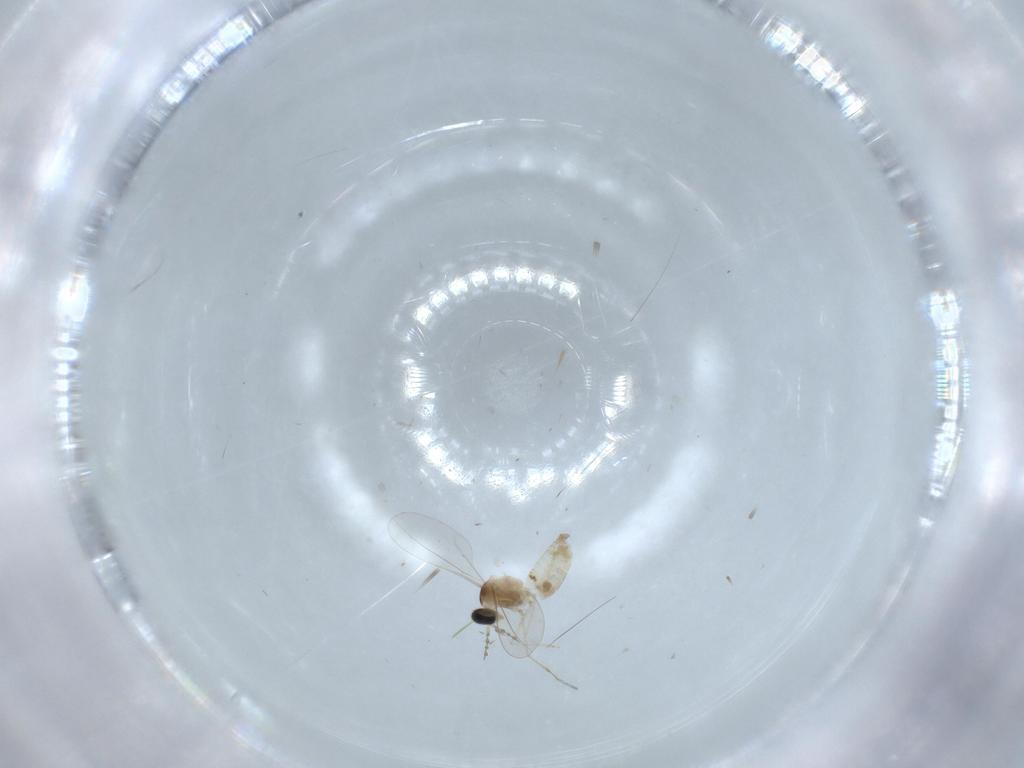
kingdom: Animalia
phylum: Arthropoda
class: Insecta
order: Diptera
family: Cecidomyiidae
